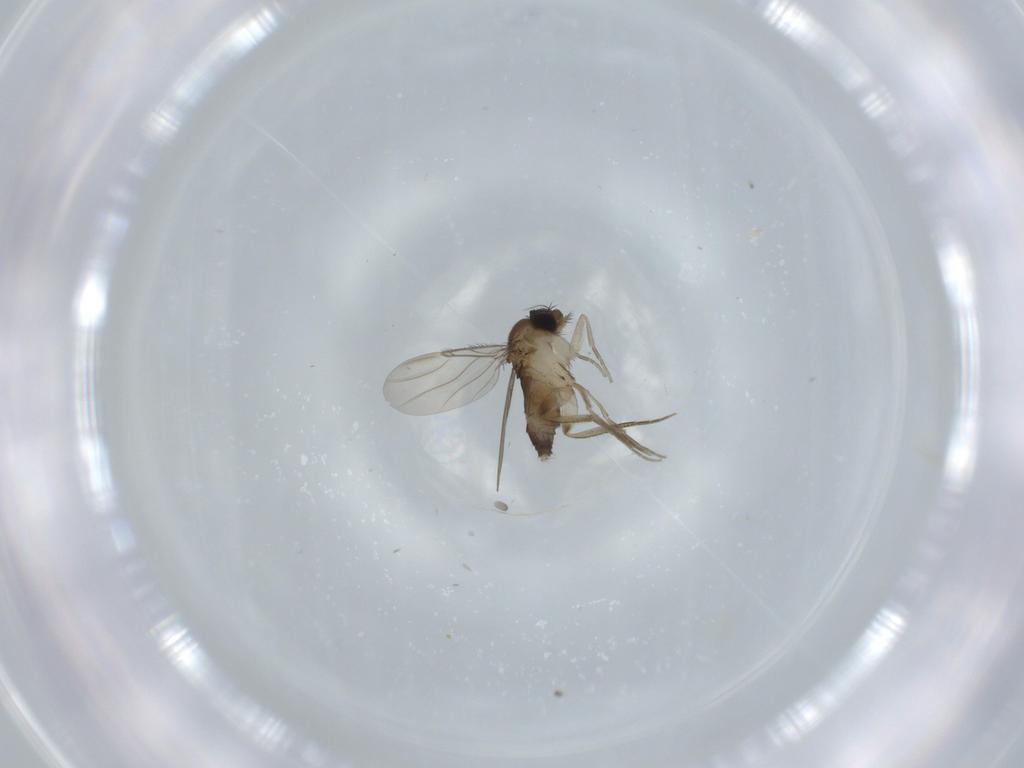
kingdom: Animalia
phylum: Arthropoda
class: Insecta
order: Diptera
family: Phoridae
